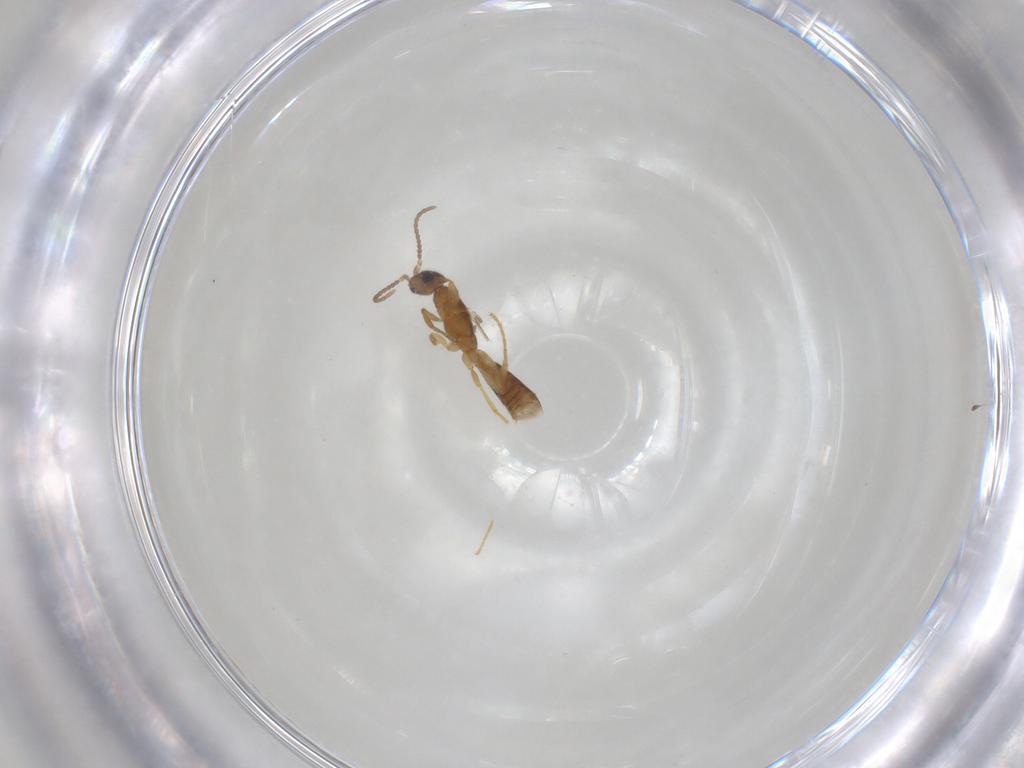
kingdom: Animalia
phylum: Arthropoda
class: Insecta
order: Hymenoptera
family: Formicidae
